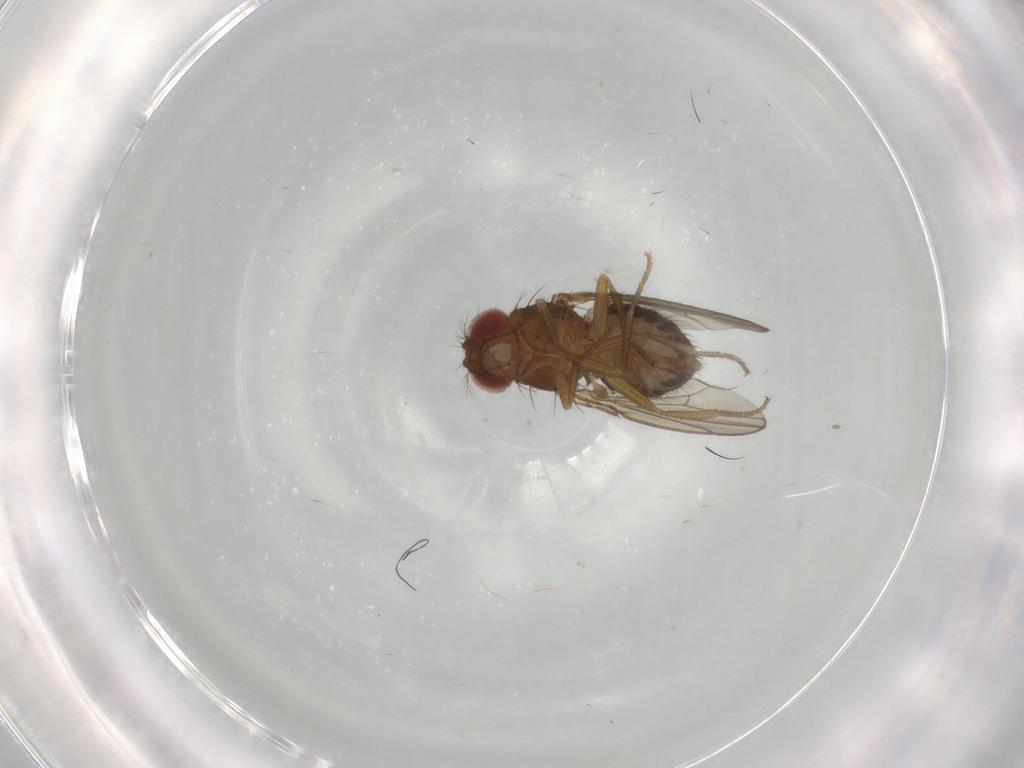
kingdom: Animalia
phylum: Arthropoda
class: Insecta
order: Diptera
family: Drosophilidae
